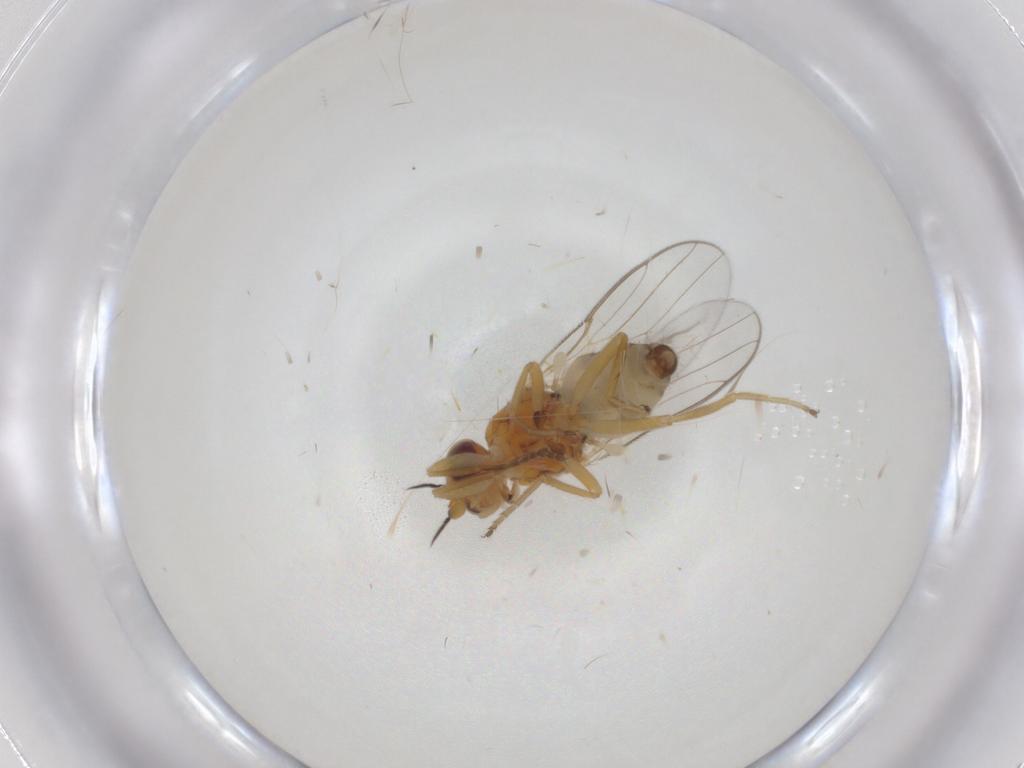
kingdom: Animalia
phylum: Arthropoda
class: Insecta
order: Diptera
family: Chloropidae
